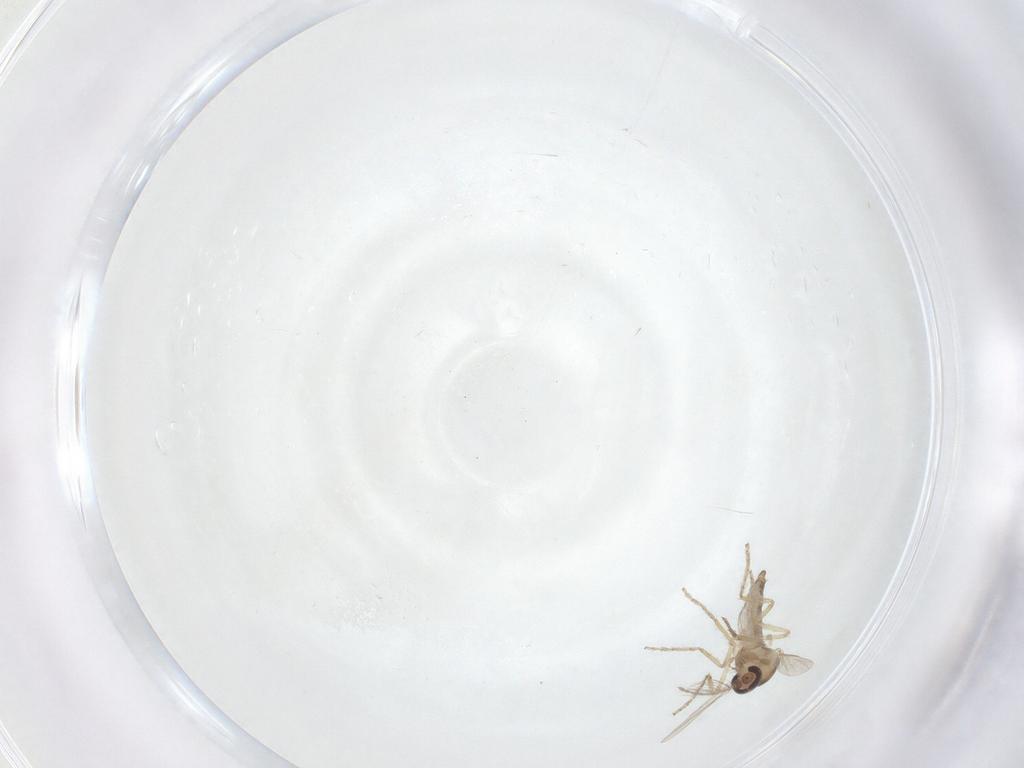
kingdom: Animalia
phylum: Arthropoda
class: Insecta
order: Diptera
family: Ceratopogonidae
